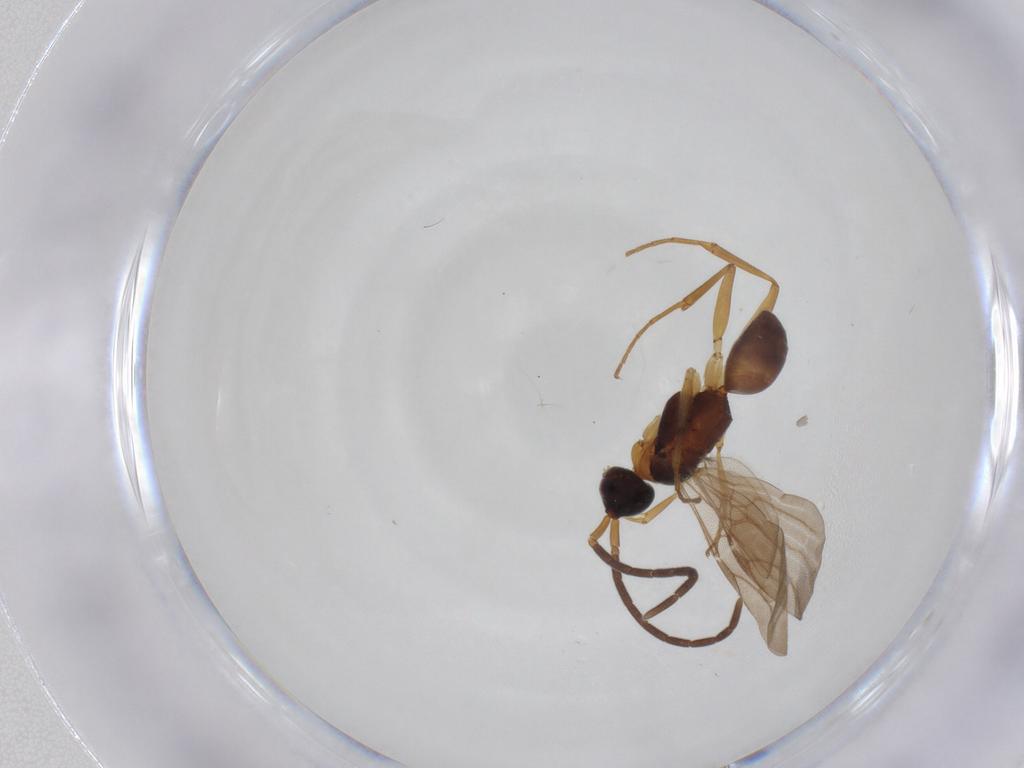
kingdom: Animalia
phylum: Arthropoda
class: Insecta
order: Hymenoptera
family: Embolemidae
